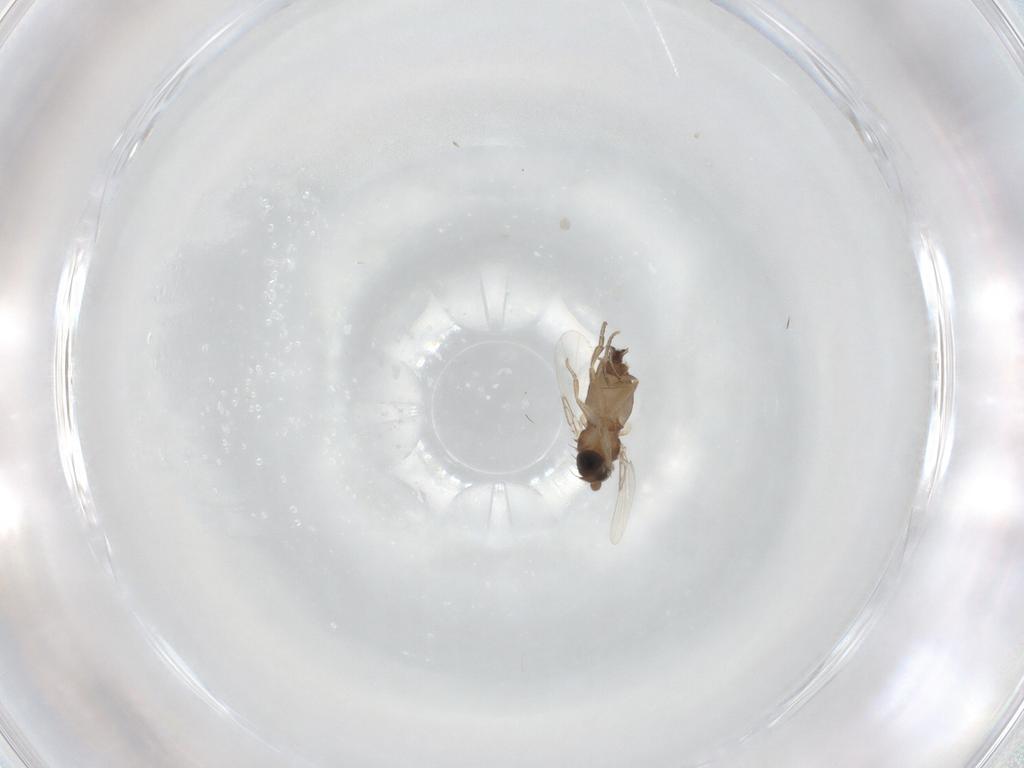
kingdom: Animalia
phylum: Arthropoda
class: Insecta
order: Diptera
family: Phoridae
